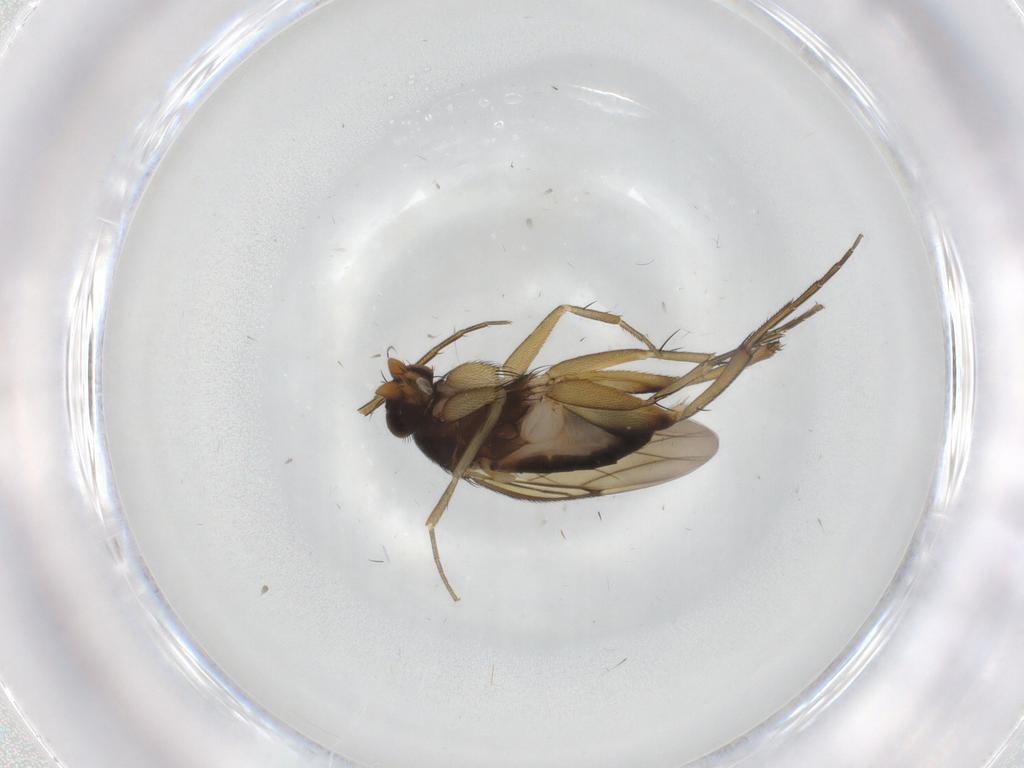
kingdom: Animalia
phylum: Arthropoda
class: Insecta
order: Diptera
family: Phoridae
